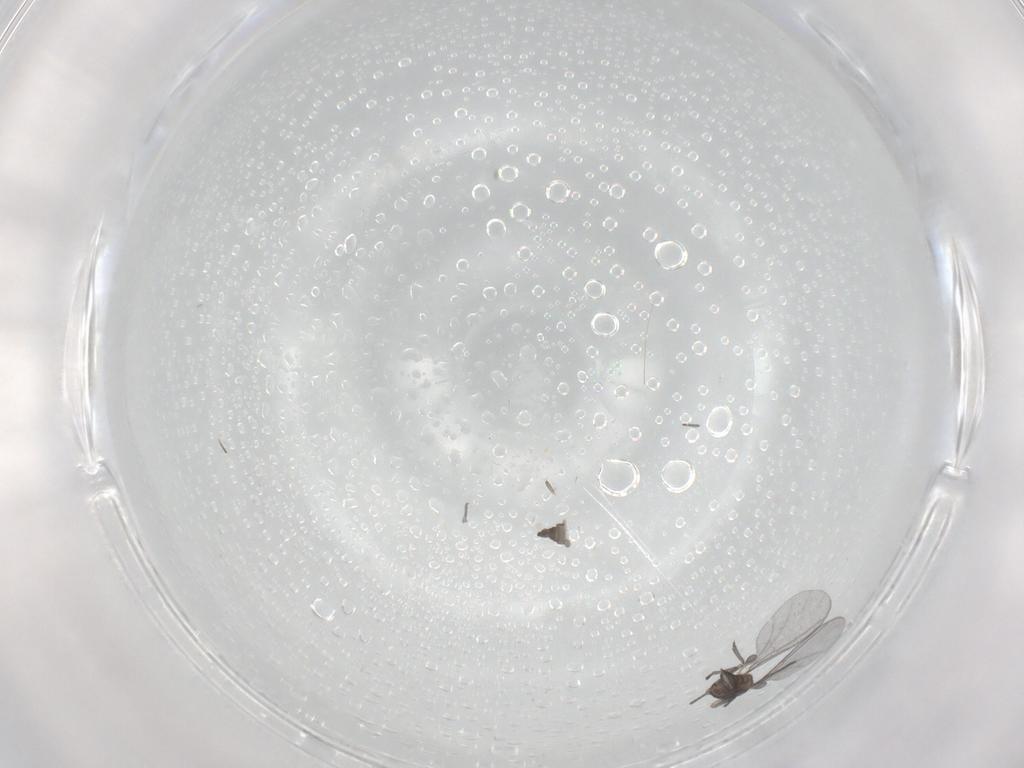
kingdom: Animalia
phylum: Arthropoda
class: Insecta
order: Diptera
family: Sciaridae
